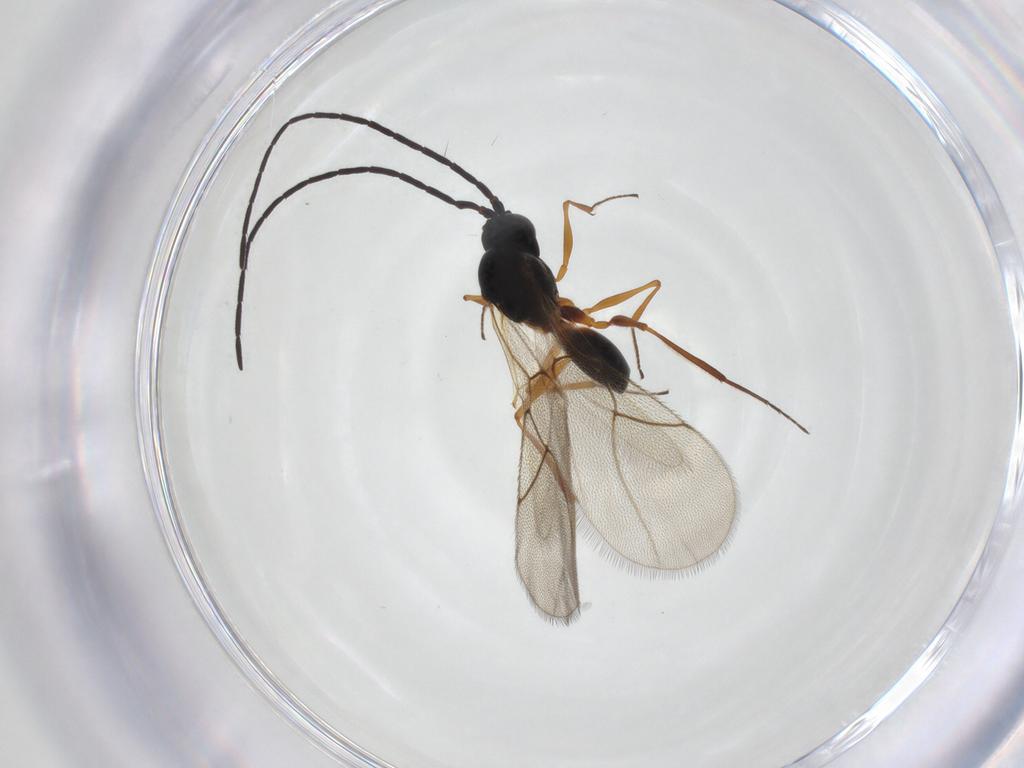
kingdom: Animalia
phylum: Arthropoda
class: Insecta
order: Hymenoptera
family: Figitidae
